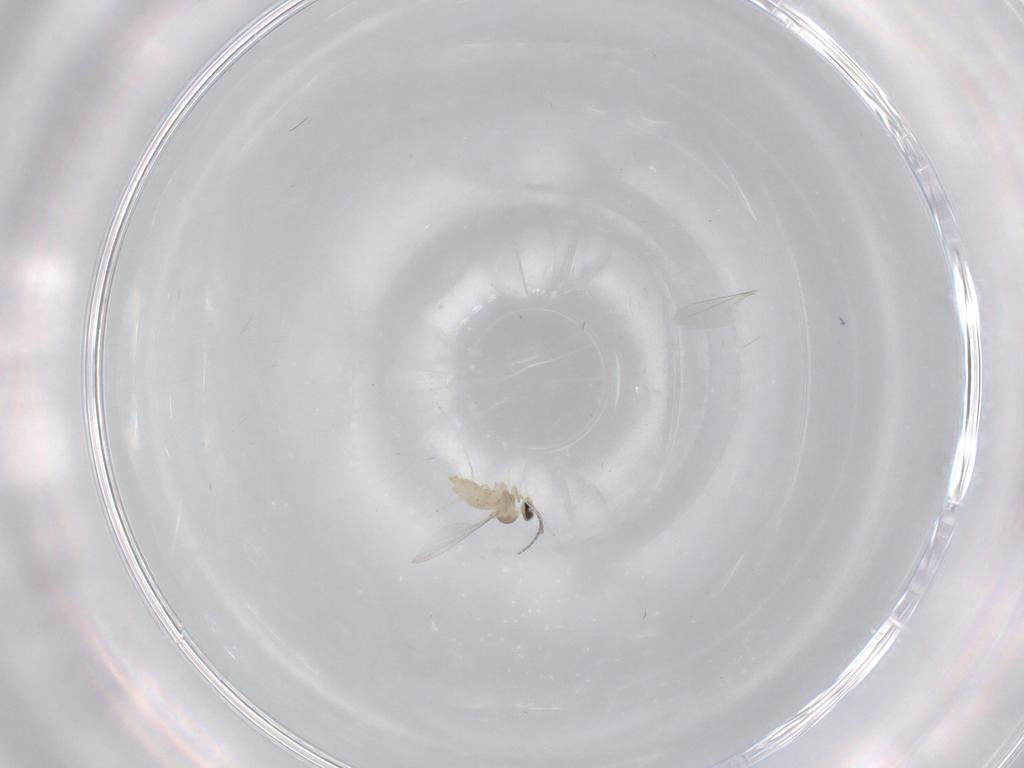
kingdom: Animalia
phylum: Arthropoda
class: Insecta
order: Diptera
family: Cecidomyiidae
